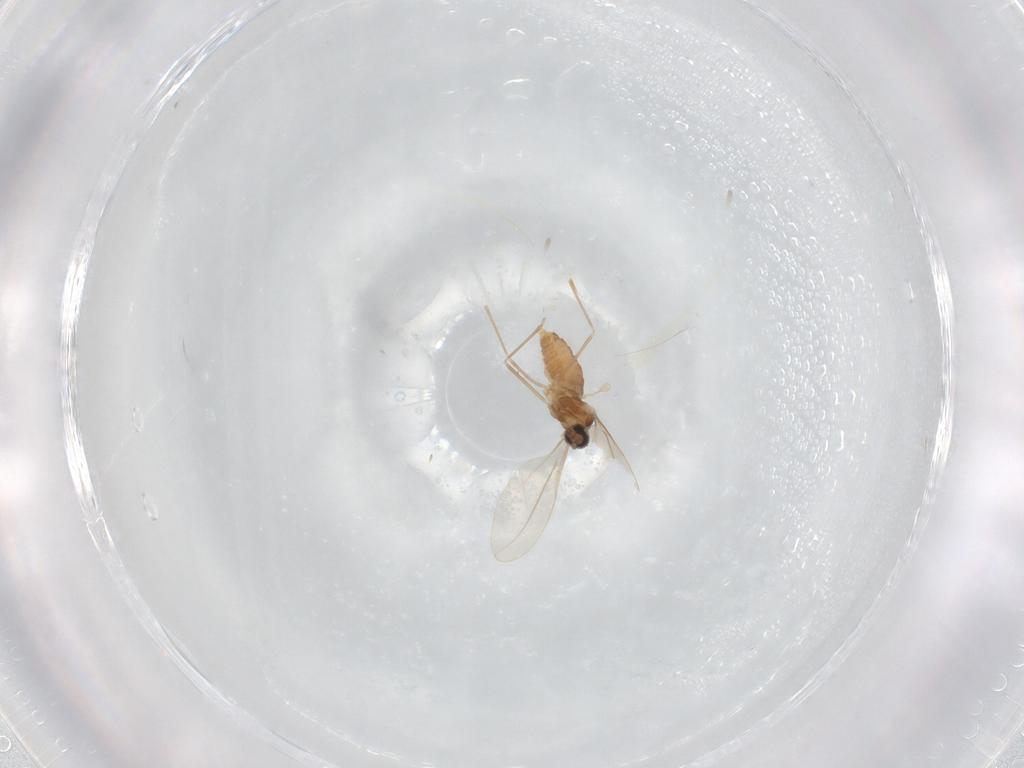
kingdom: Animalia
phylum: Arthropoda
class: Insecta
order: Diptera
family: Cecidomyiidae
